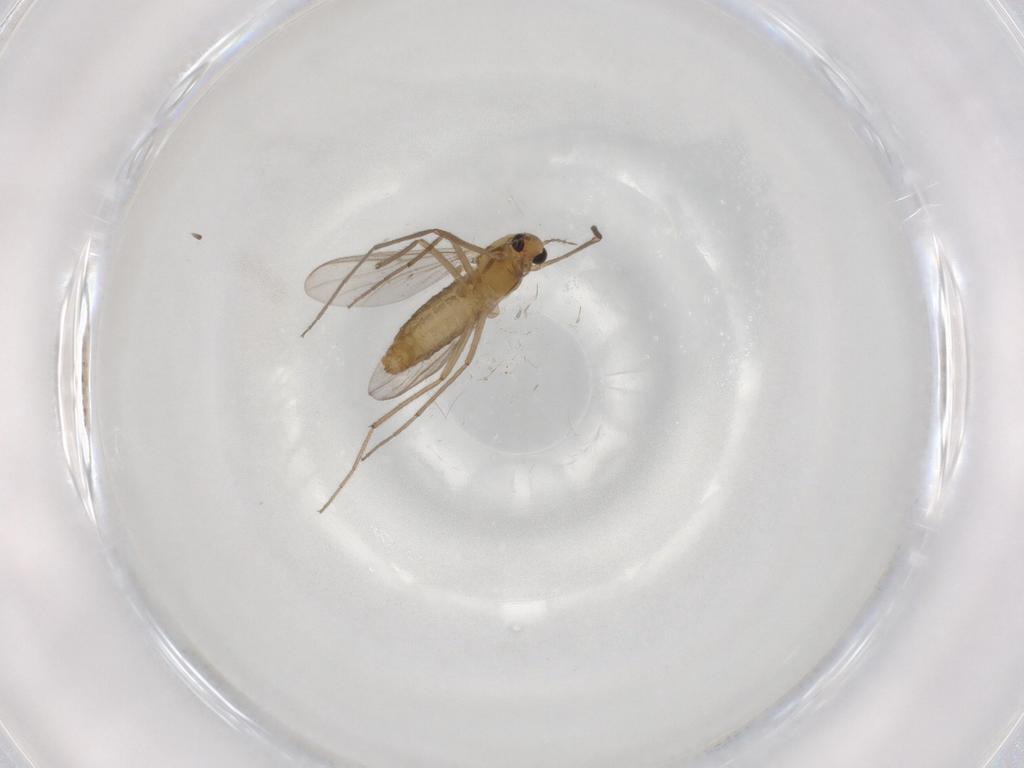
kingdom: Animalia
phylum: Arthropoda
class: Insecta
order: Diptera
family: Chironomidae
